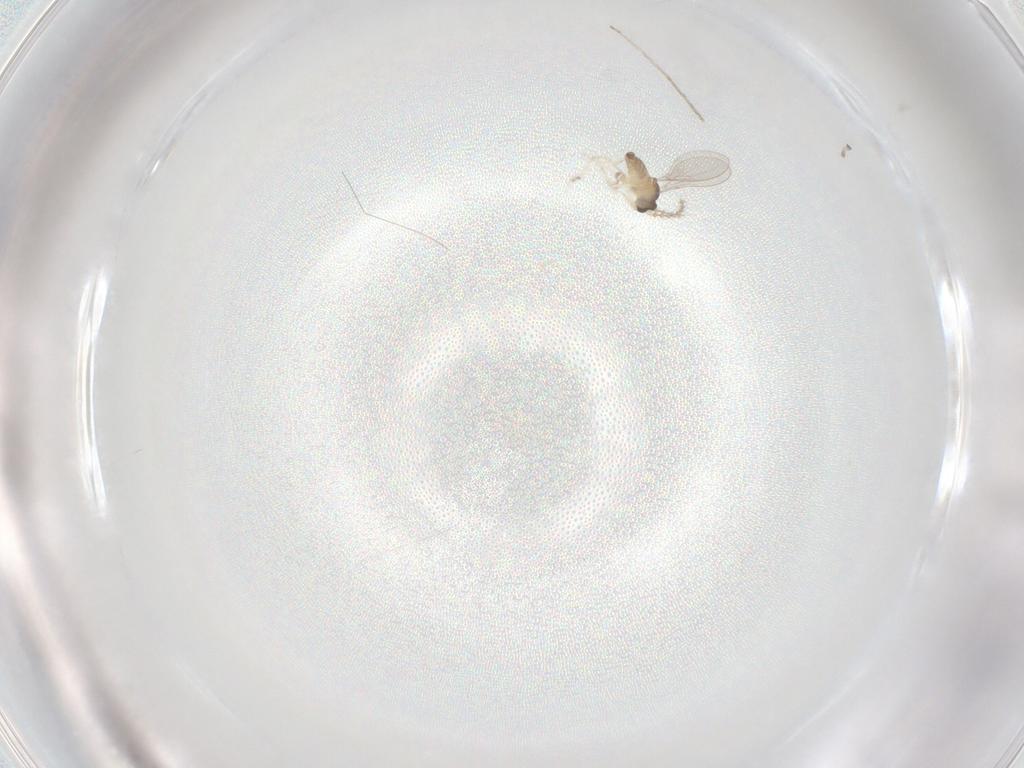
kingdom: Animalia
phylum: Arthropoda
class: Insecta
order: Diptera
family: Cecidomyiidae
